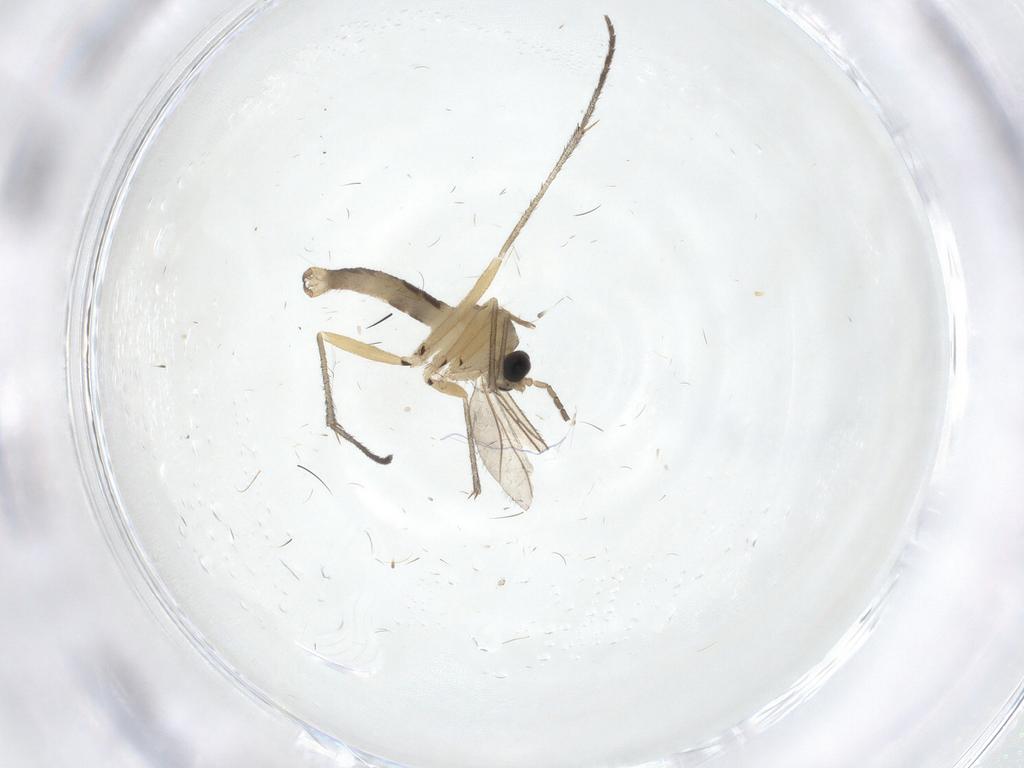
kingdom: Animalia
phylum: Arthropoda
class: Insecta
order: Diptera
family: Sciaridae
